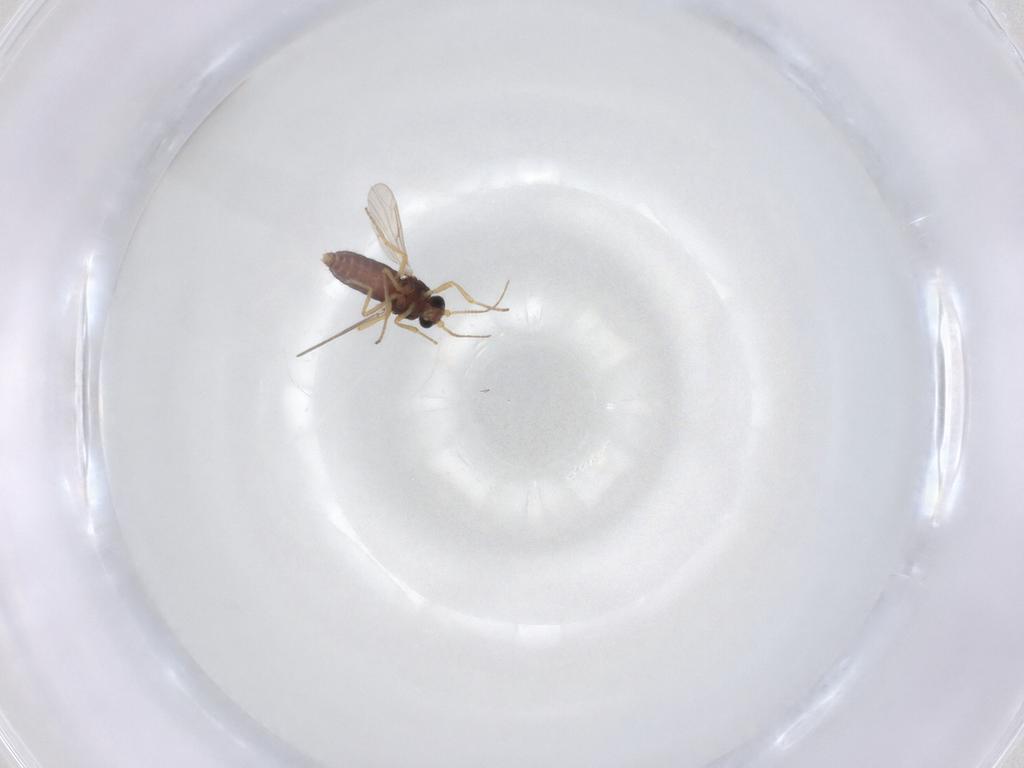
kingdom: Animalia
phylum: Arthropoda
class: Insecta
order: Diptera
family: Ceratopogonidae
